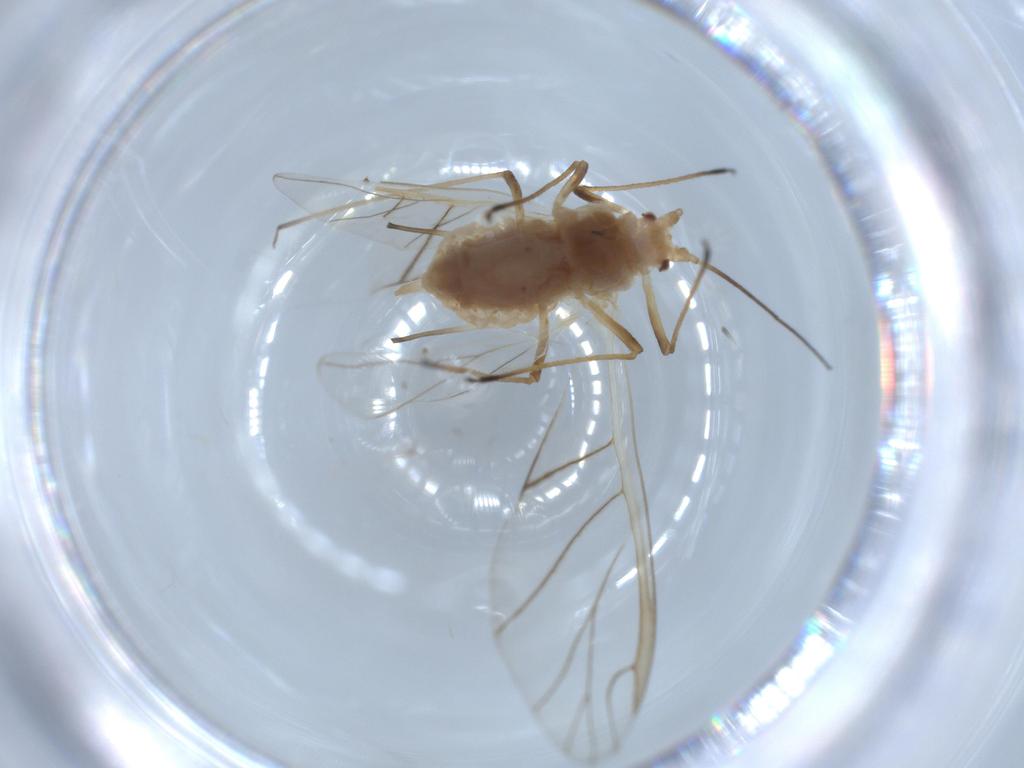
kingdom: Animalia
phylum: Arthropoda
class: Insecta
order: Hemiptera
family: Aphididae
